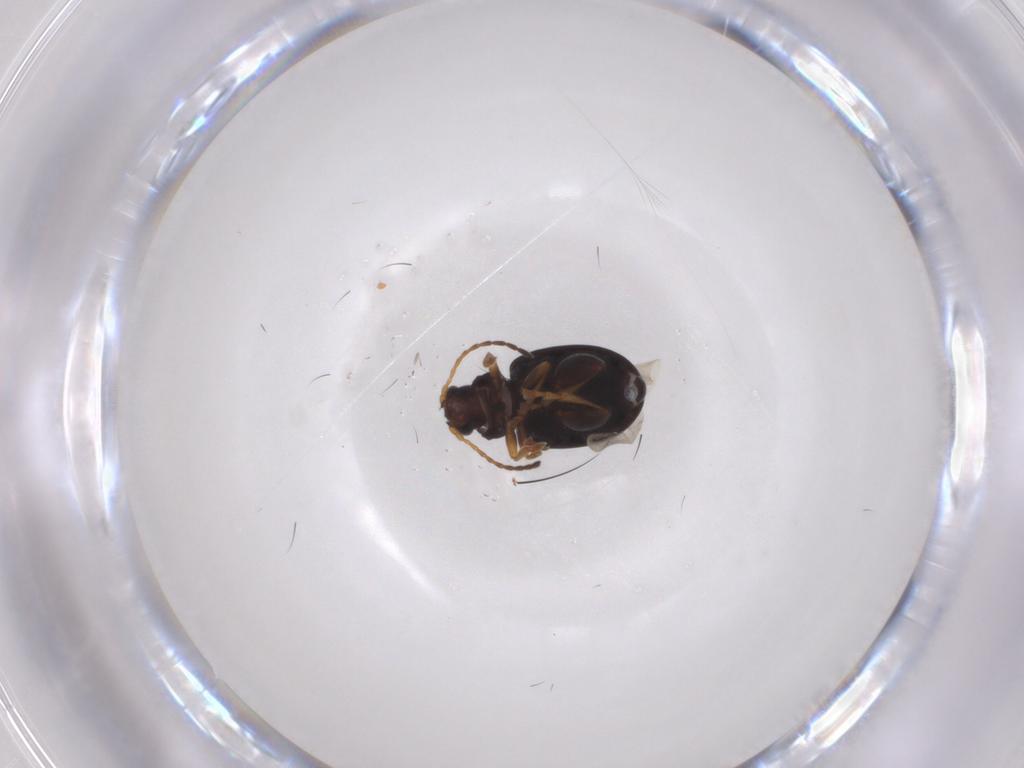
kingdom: Animalia
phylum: Arthropoda
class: Insecta
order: Coleoptera
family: Chrysomelidae
